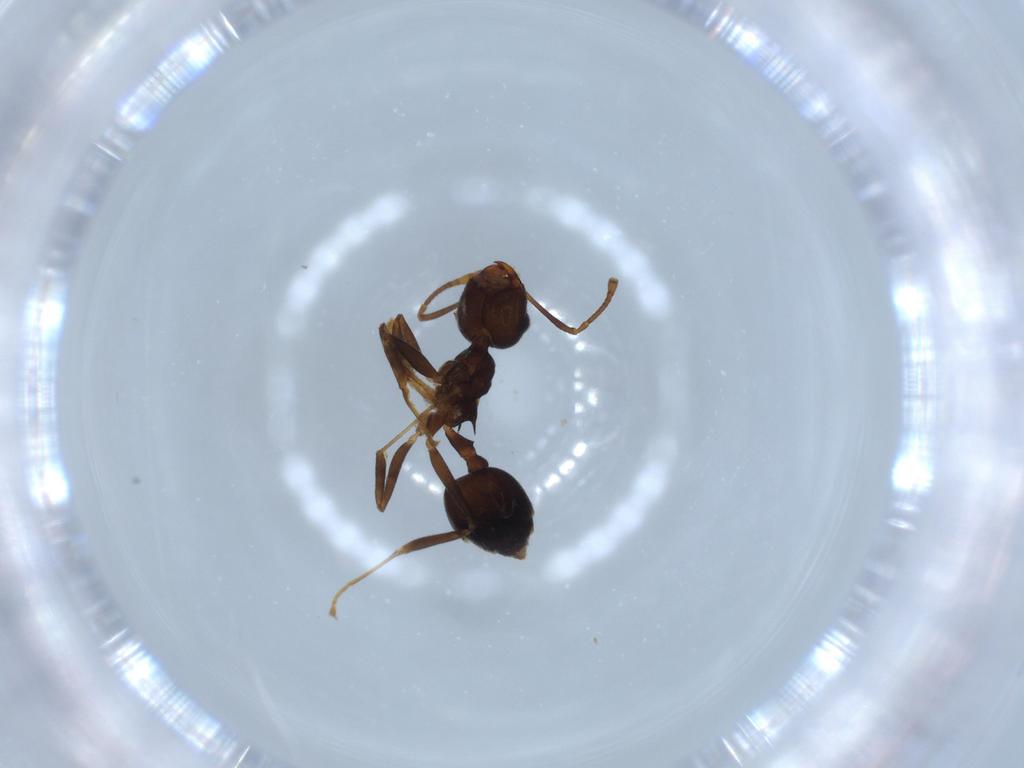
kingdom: Animalia
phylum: Arthropoda
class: Insecta
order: Hymenoptera
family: Formicidae
